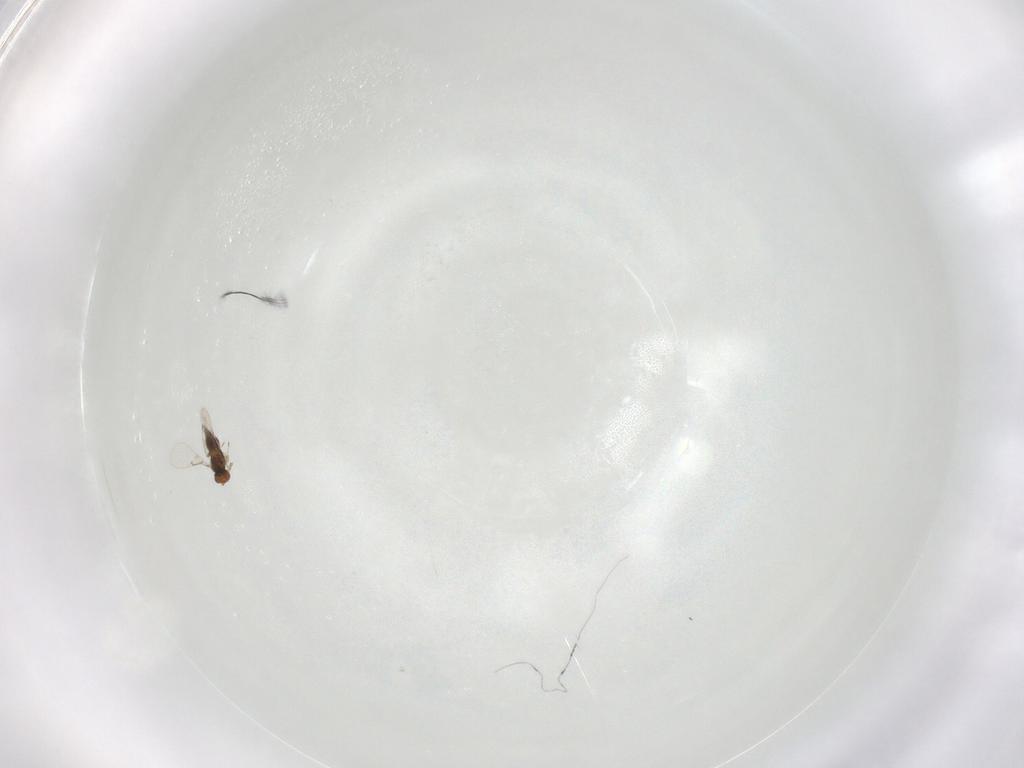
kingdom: Animalia
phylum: Arthropoda
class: Insecta
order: Hymenoptera
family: Trichogrammatidae
